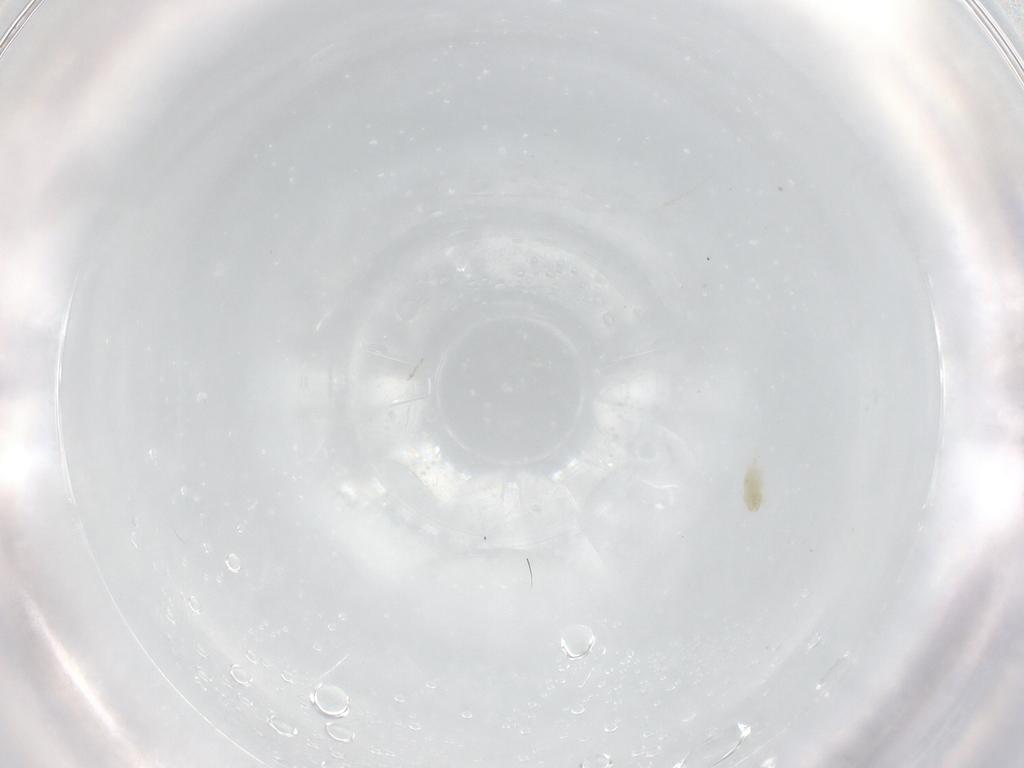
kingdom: Animalia
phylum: Arthropoda
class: Arachnida
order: Trombidiformes
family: Eupodidae
